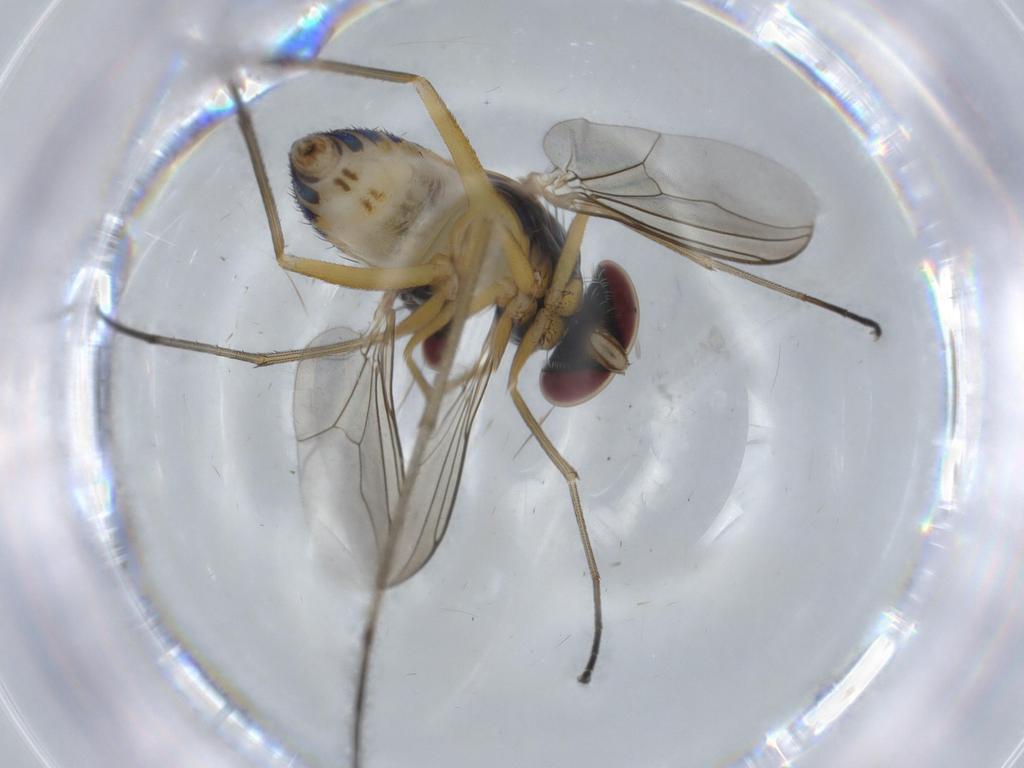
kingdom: Animalia
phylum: Arthropoda
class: Insecta
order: Diptera
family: Dolichopodidae
